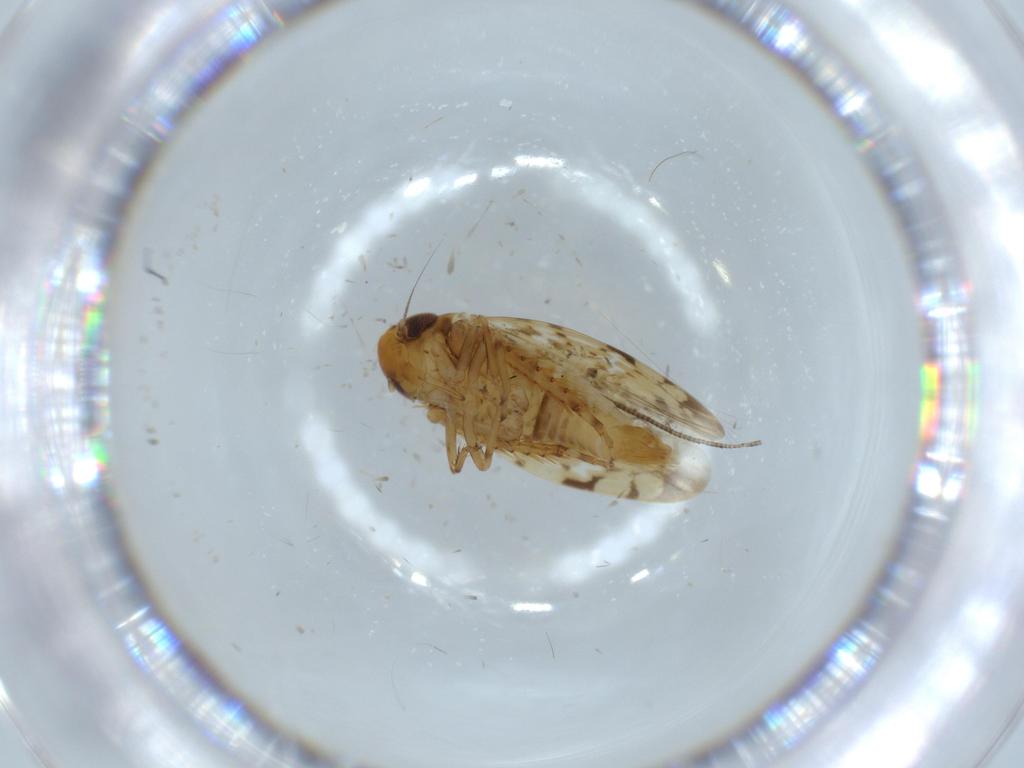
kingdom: Animalia
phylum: Arthropoda
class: Insecta
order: Hemiptera
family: Cicadellidae
